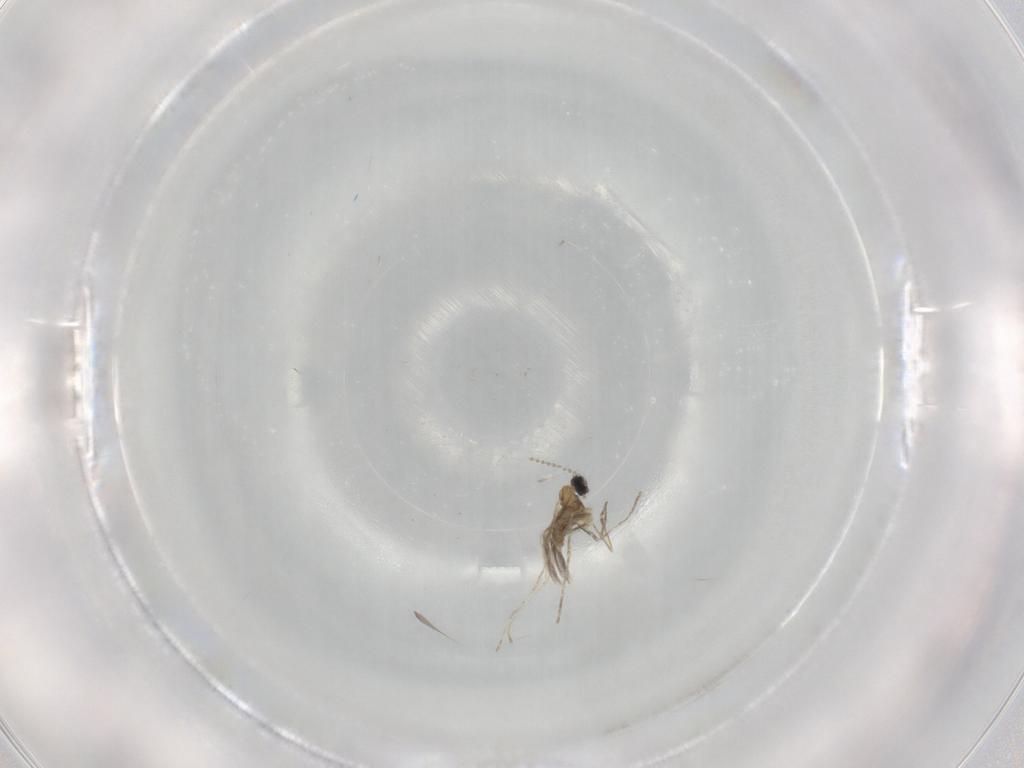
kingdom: Animalia
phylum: Arthropoda
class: Insecta
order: Diptera
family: Cecidomyiidae
